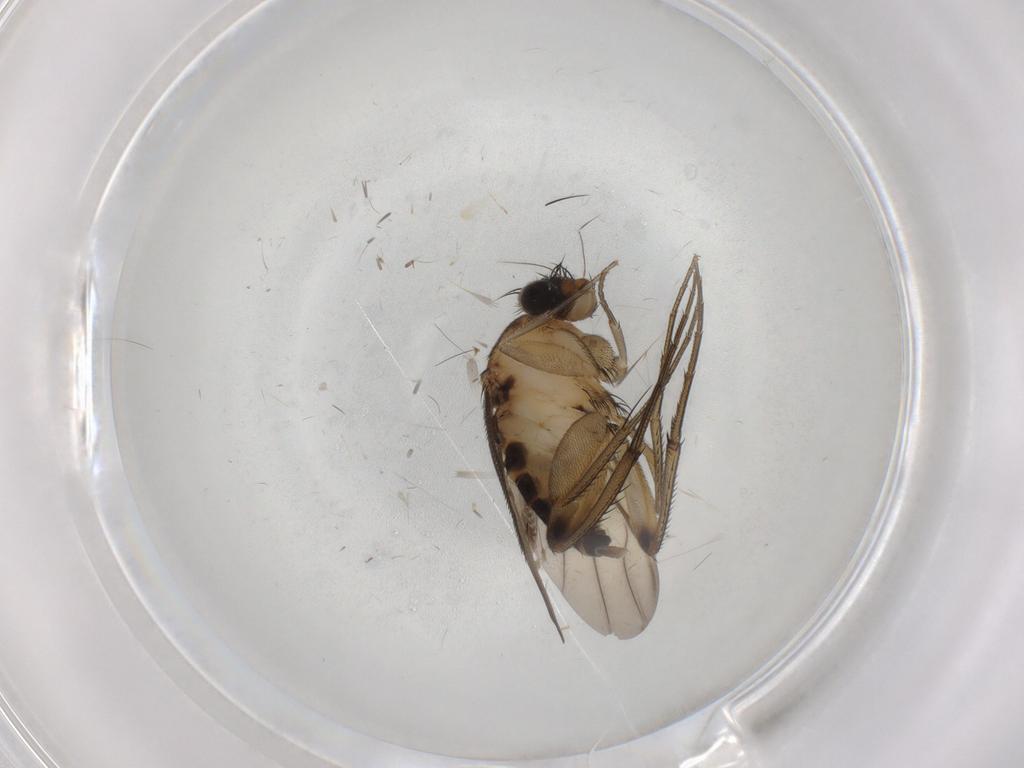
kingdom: Animalia
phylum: Arthropoda
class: Insecta
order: Diptera
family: Phoridae
